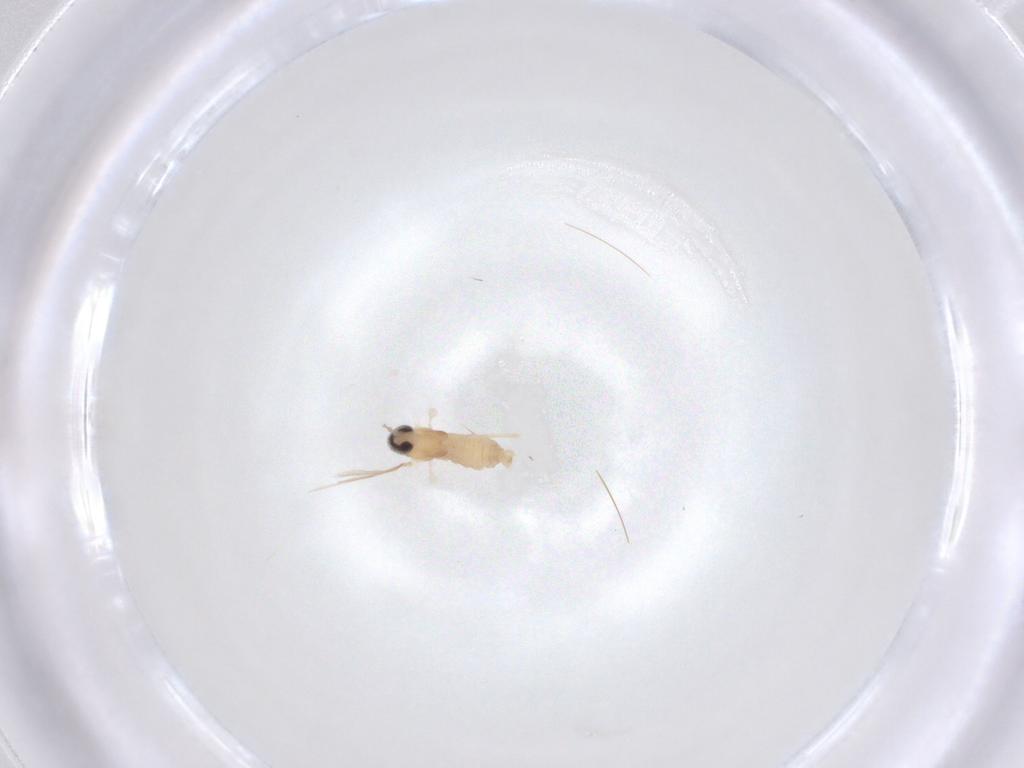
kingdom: Animalia
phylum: Arthropoda
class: Insecta
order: Diptera
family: Cecidomyiidae
